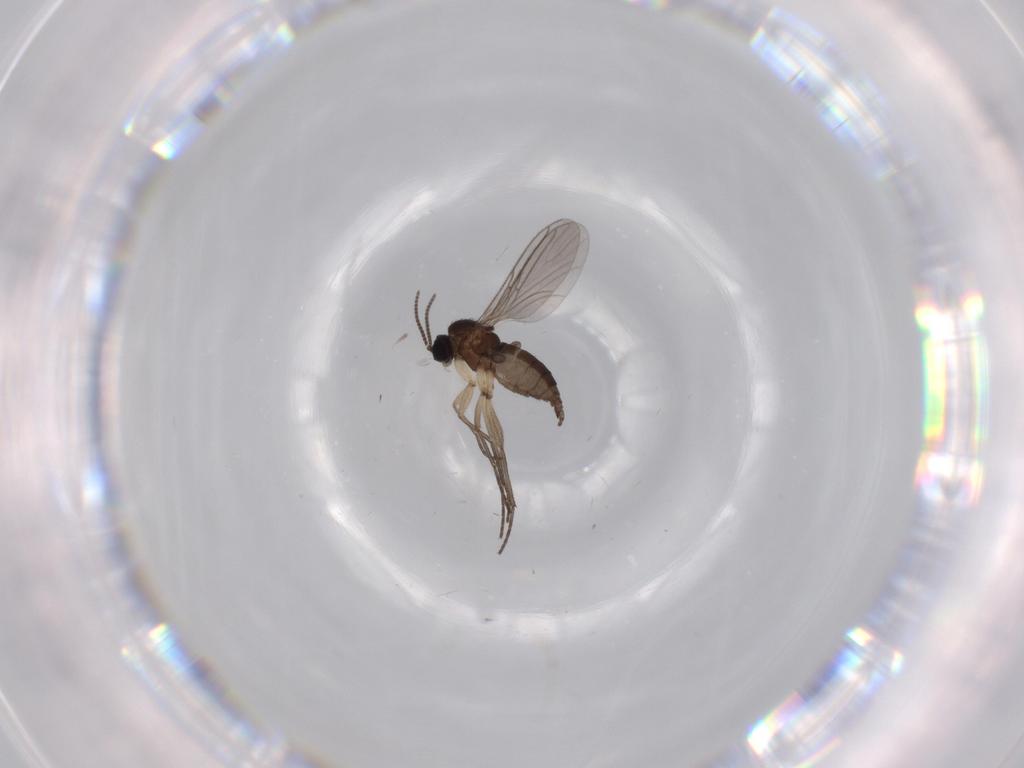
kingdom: Animalia
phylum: Arthropoda
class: Insecta
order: Diptera
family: Sciaridae
